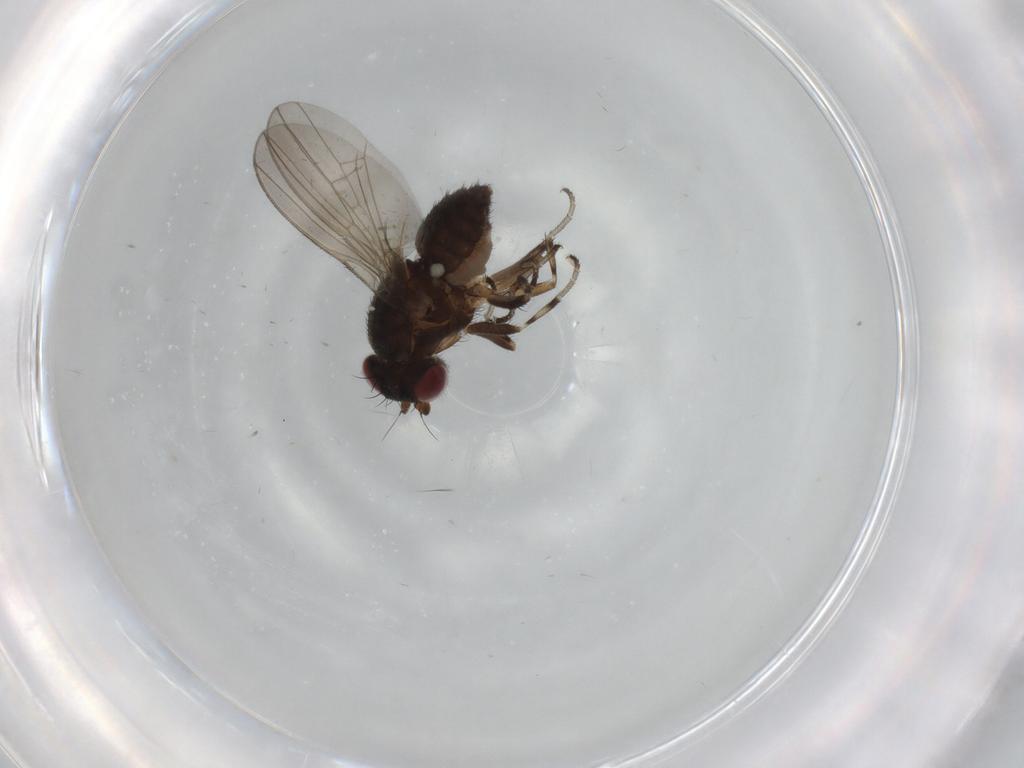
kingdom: Animalia
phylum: Arthropoda
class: Insecta
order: Diptera
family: Heleomyzidae
